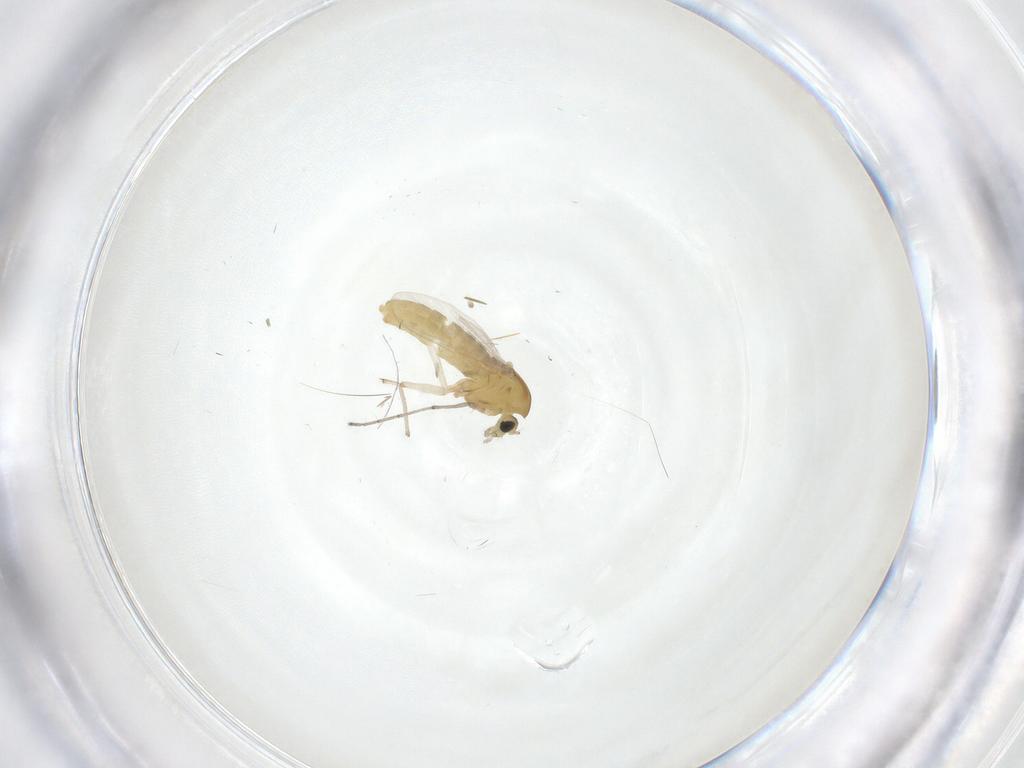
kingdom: Animalia
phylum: Arthropoda
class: Insecta
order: Diptera
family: Chironomidae
